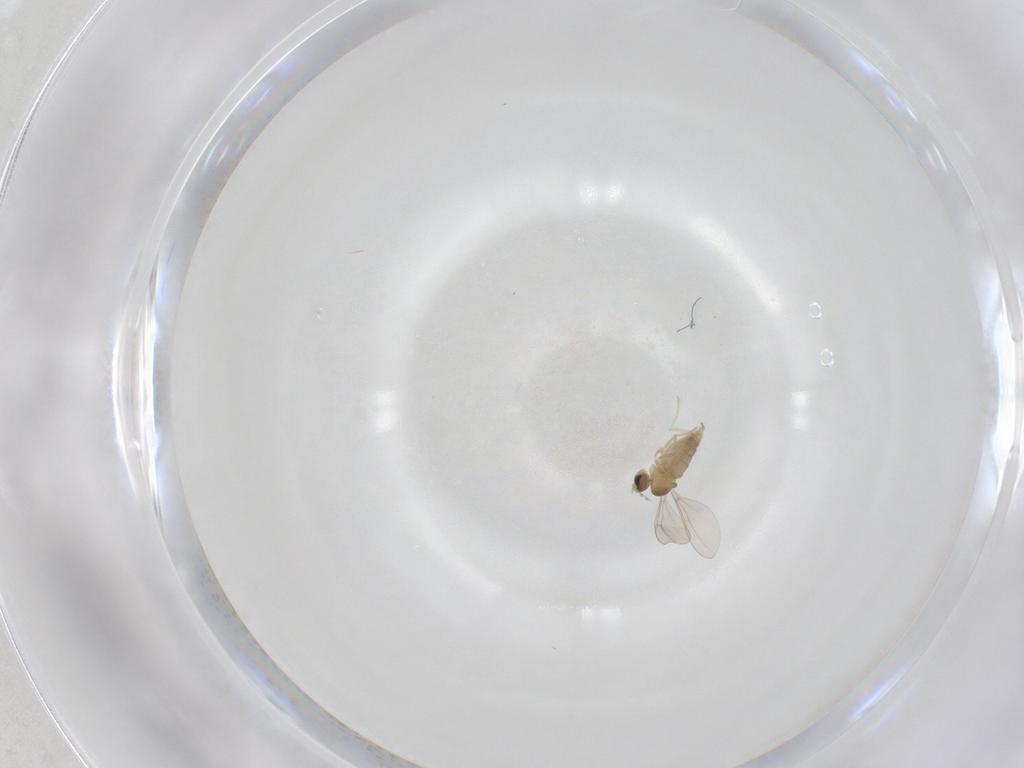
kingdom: Animalia
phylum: Arthropoda
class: Insecta
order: Diptera
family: Cecidomyiidae
